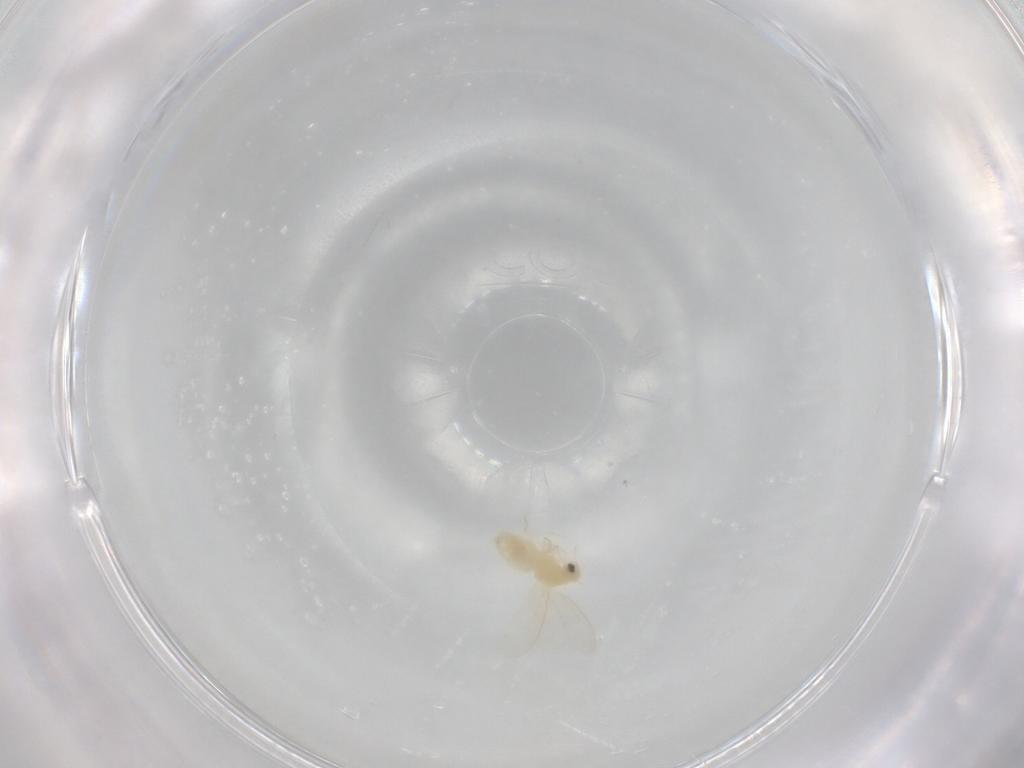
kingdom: Animalia
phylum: Arthropoda
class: Insecta
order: Hemiptera
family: Aleyrodidae
